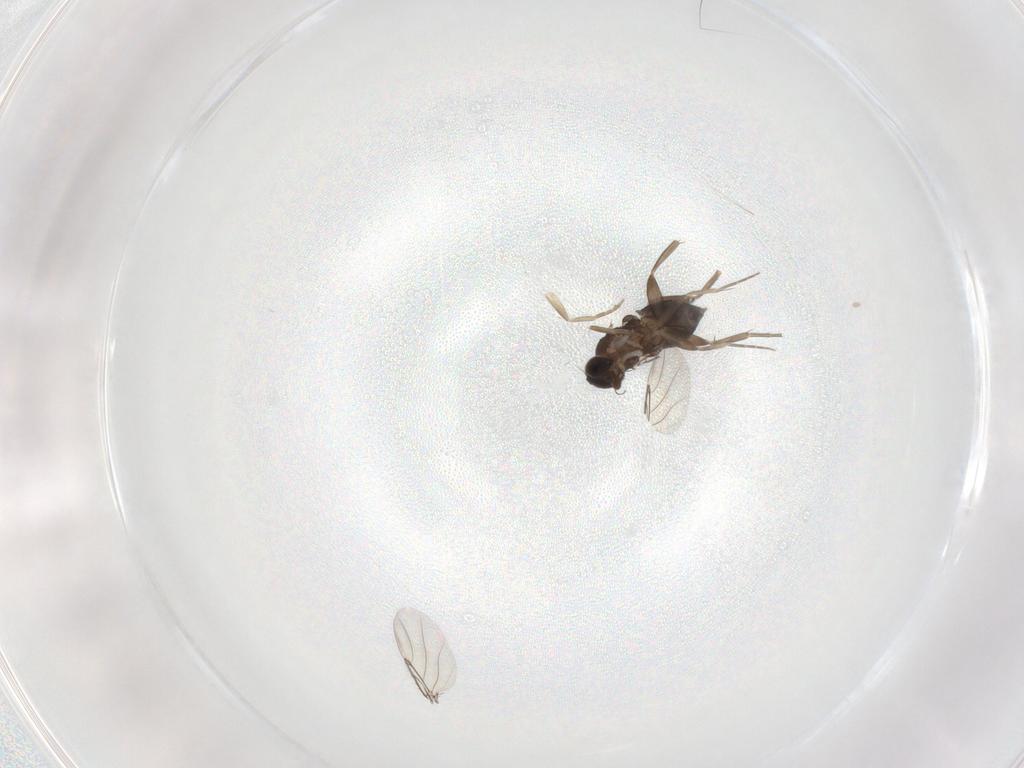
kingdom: Animalia
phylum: Arthropoda
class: Insecta
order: Diptera
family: Phoridae
